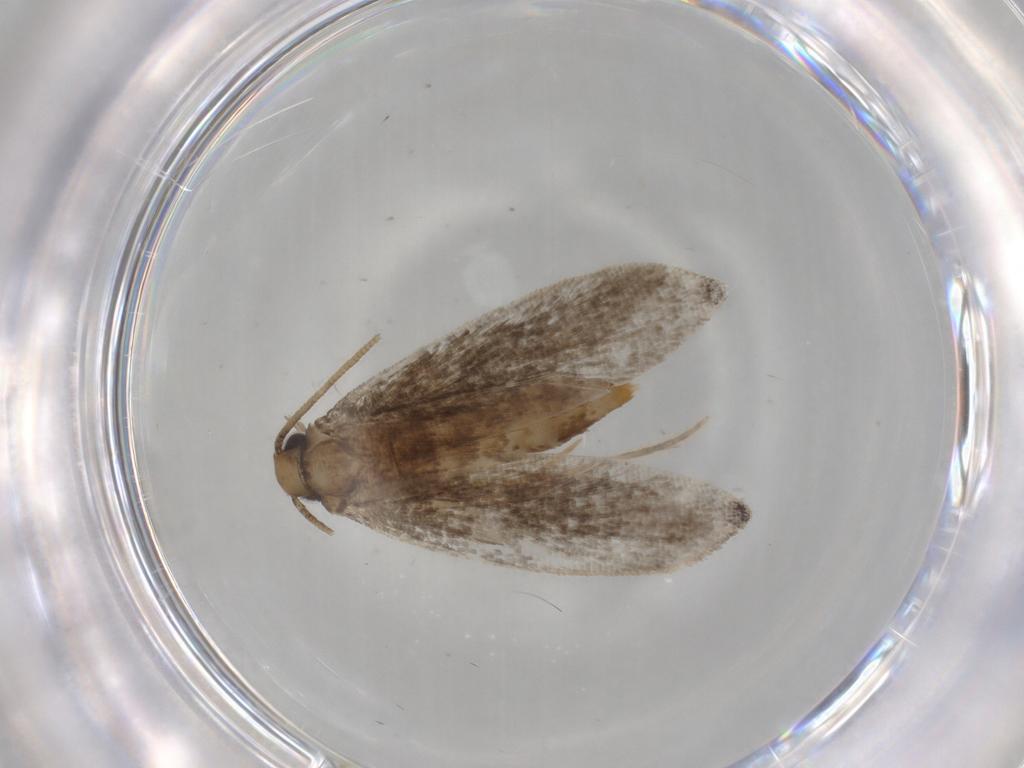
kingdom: Animalia
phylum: Arthropoda
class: Insecta
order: Lepidoptera
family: Tineidae
